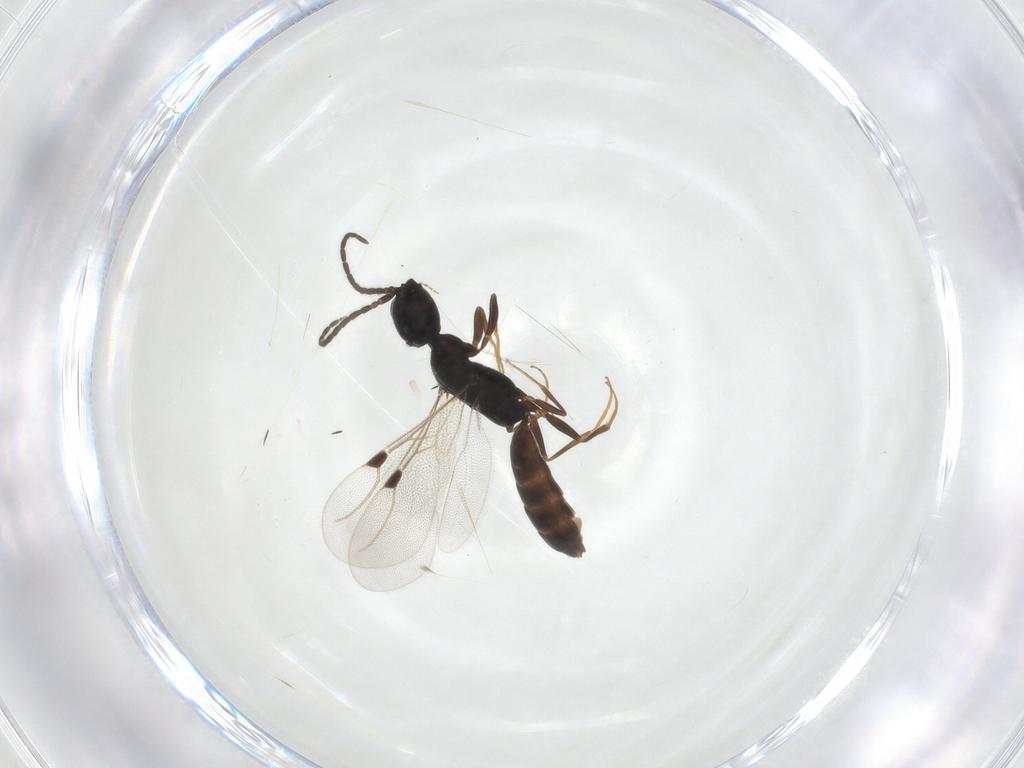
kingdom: Animalia
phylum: Arthropoda
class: Insecta
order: Hymenoptera
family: Bethylidae
